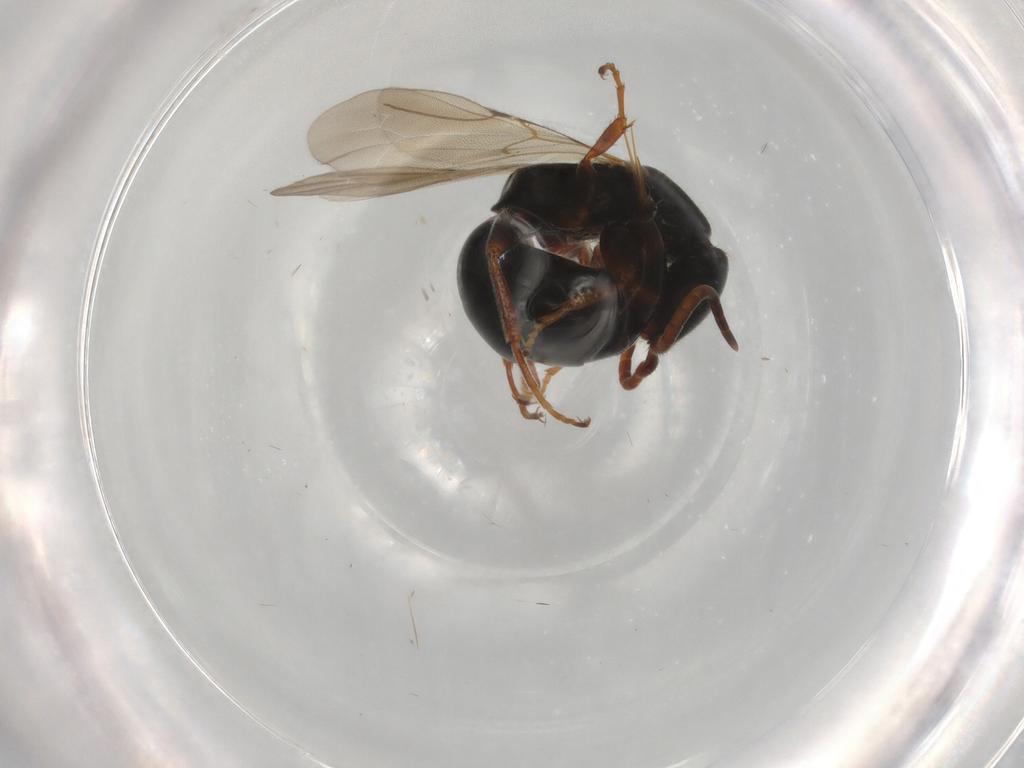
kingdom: Animalia
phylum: Arthropoda
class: Insecta
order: Hymenoptera
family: Bethylidae
